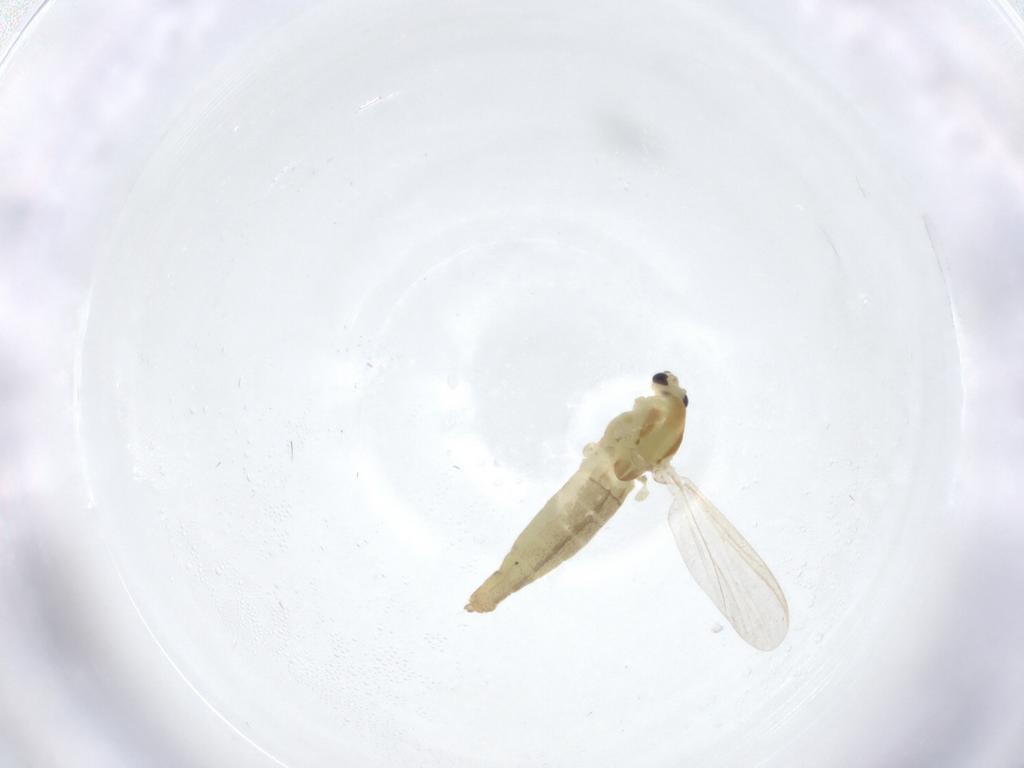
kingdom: Animalia
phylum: Arthropoda
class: Insecta
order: Diptera
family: Chironomidae
